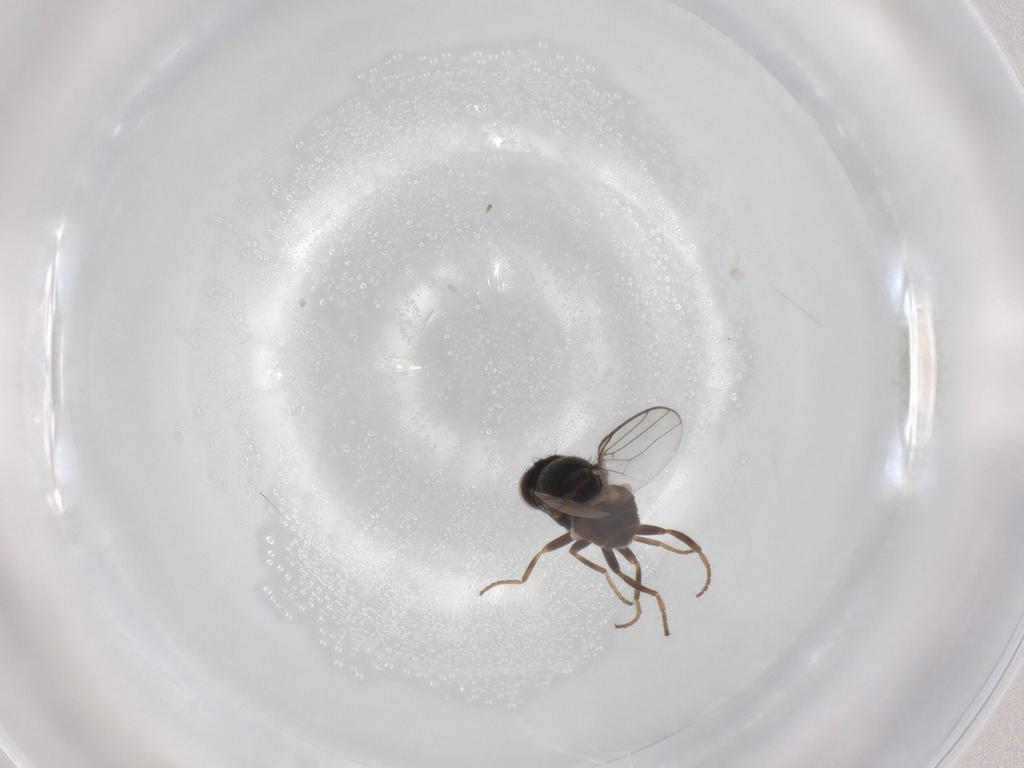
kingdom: Animalia
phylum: Arthropoda
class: Insecta
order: Diptera
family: Chloropidae
